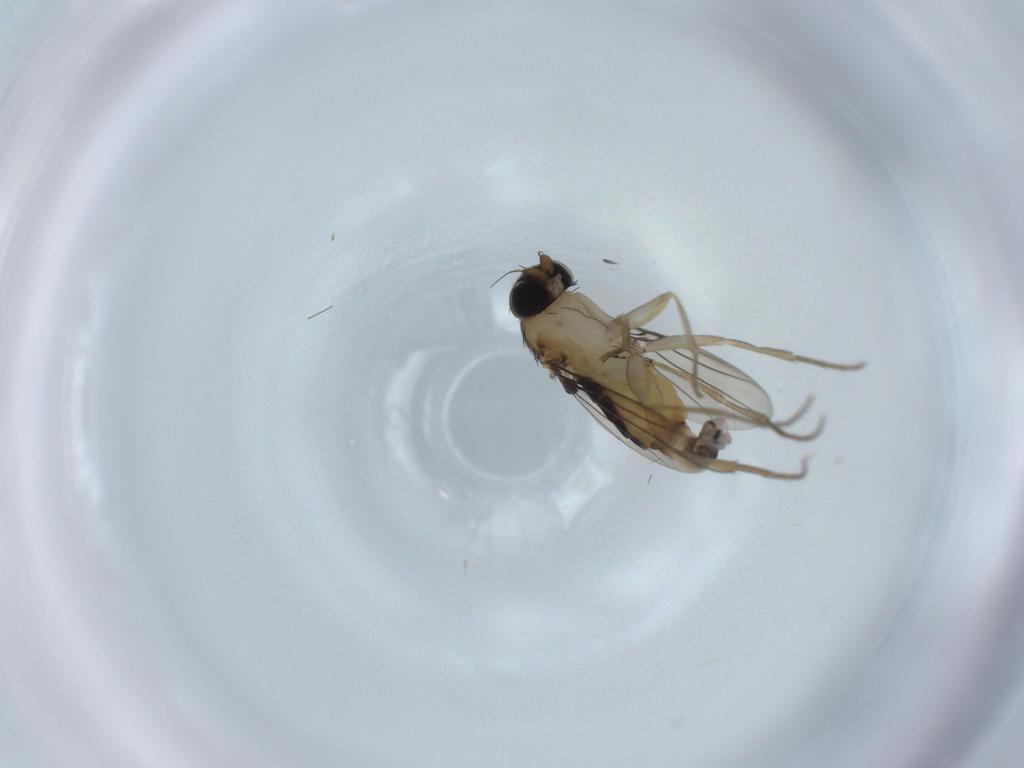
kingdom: Animalia
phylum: Arthropoda
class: Insecta
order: Diptera
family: Phoridae
